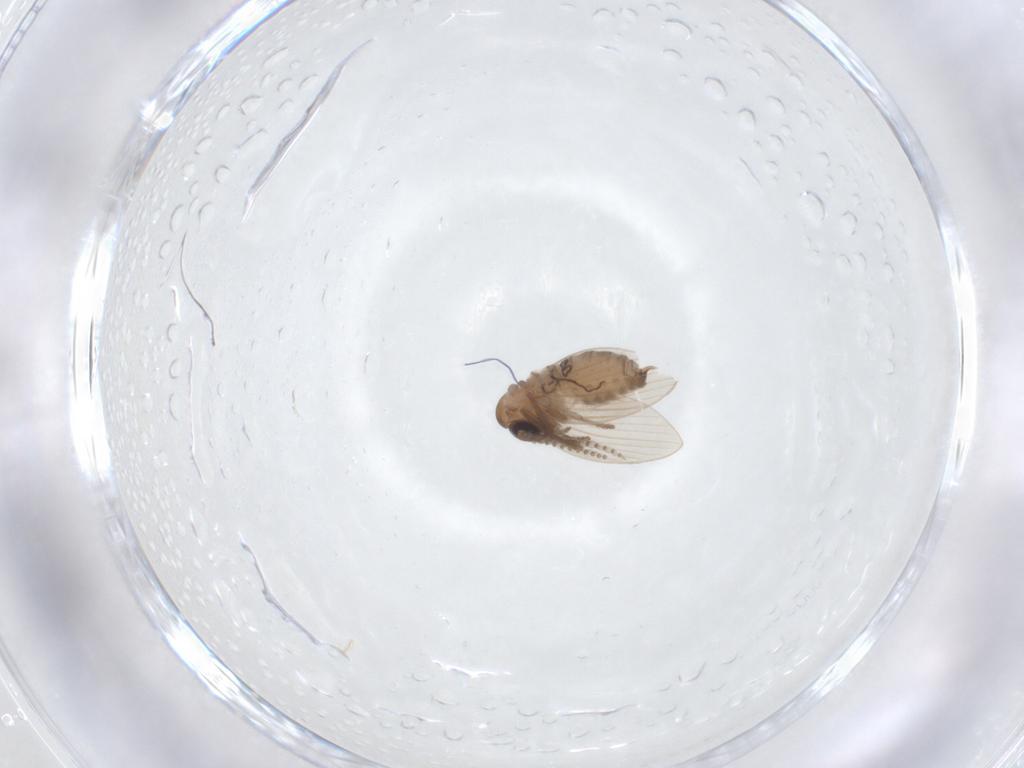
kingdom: Animalia
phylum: Arthropoda
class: Insecta
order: Diptera
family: Psychodidae
